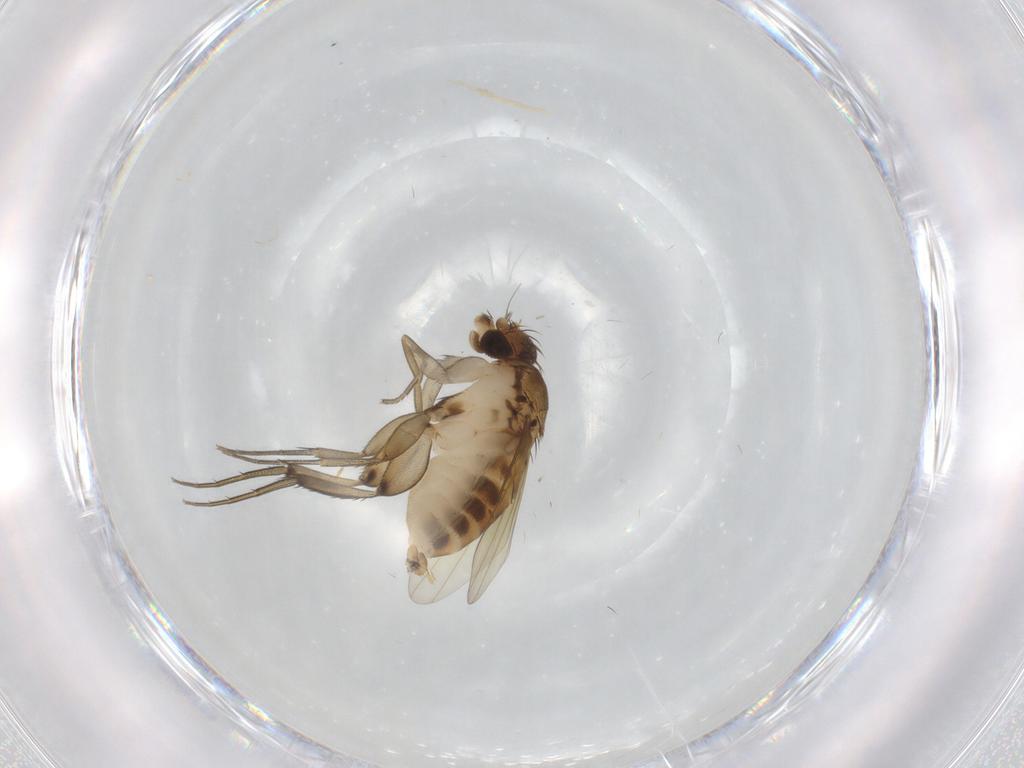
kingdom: Animalia
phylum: Arthropoda
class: Insecta
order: Diptera
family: Phoridae
